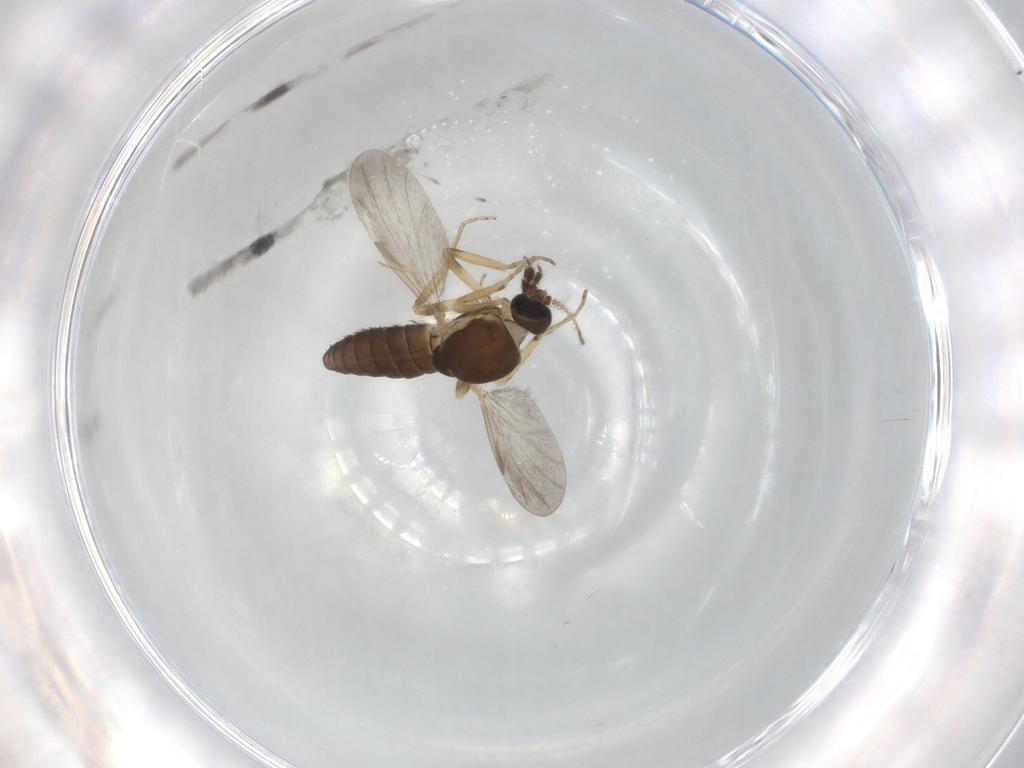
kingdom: Animalia
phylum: Arthropoda
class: Insecta
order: Diptera
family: Ceratopogonidae
